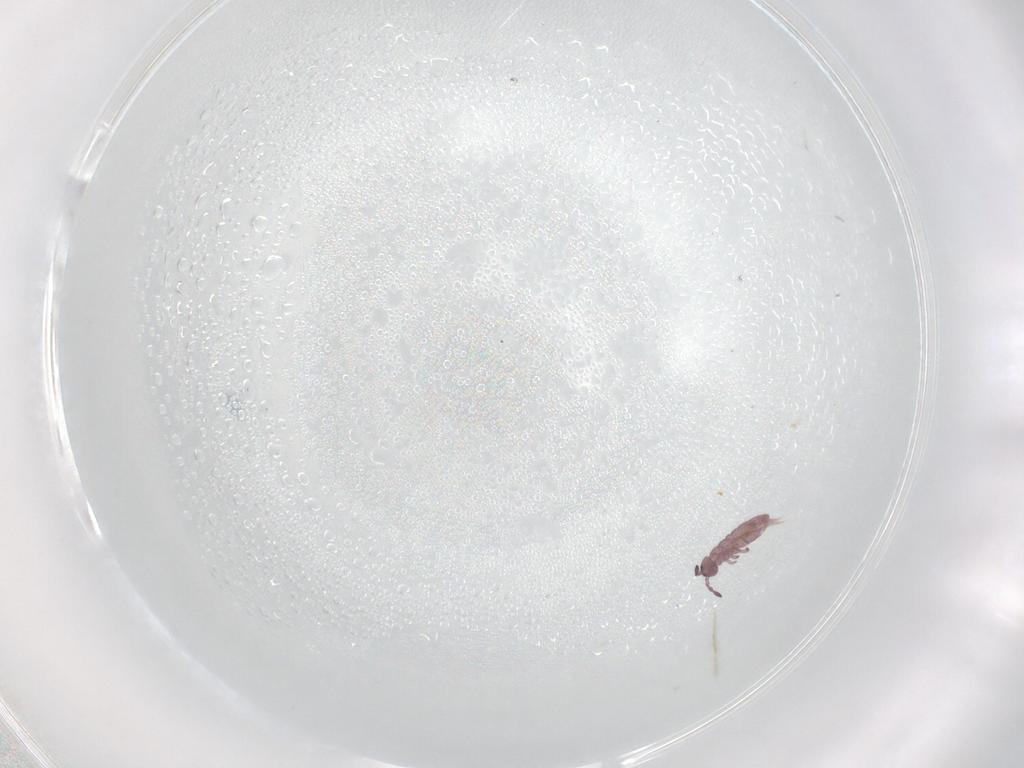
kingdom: Animalia
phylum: Arthropoda
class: Collembola
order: Entomobryomorpha
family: Isotomidae
